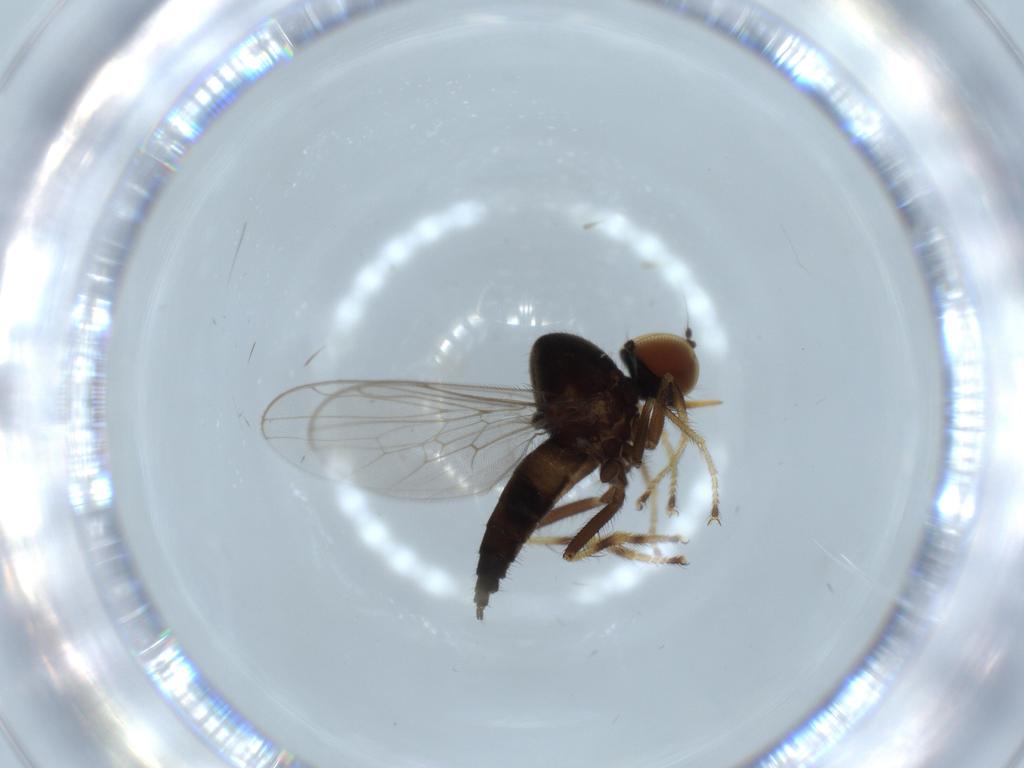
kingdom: Animalia
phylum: Arthropoda
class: Insecta
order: Diptera
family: Hybotidae
